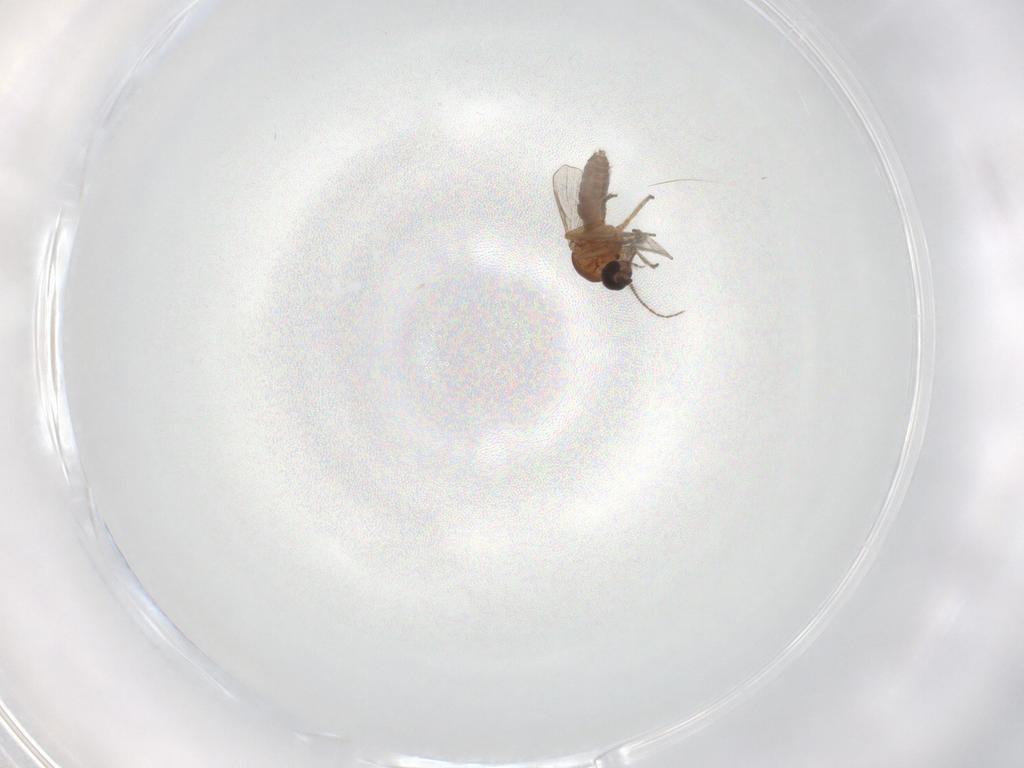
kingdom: Animalia
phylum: Arthropoda
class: Insecta
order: Diptera
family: Ceratopogonidae
